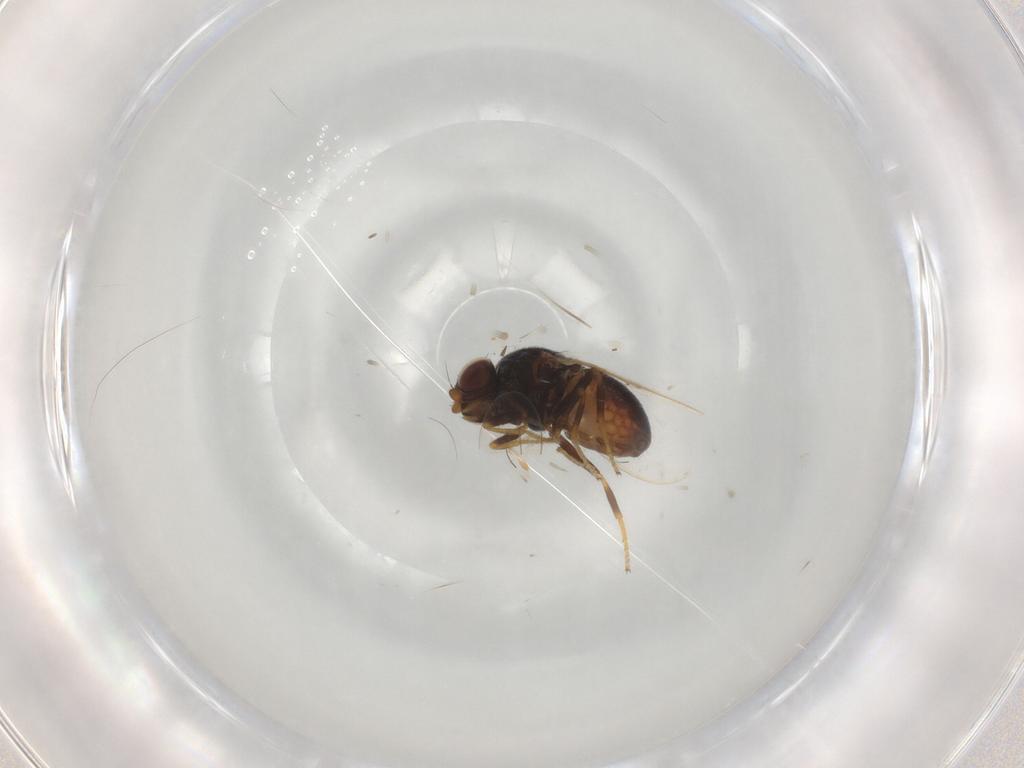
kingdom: Animalia
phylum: Arthropoda
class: Insecta
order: Diptera
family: Chloropidae
